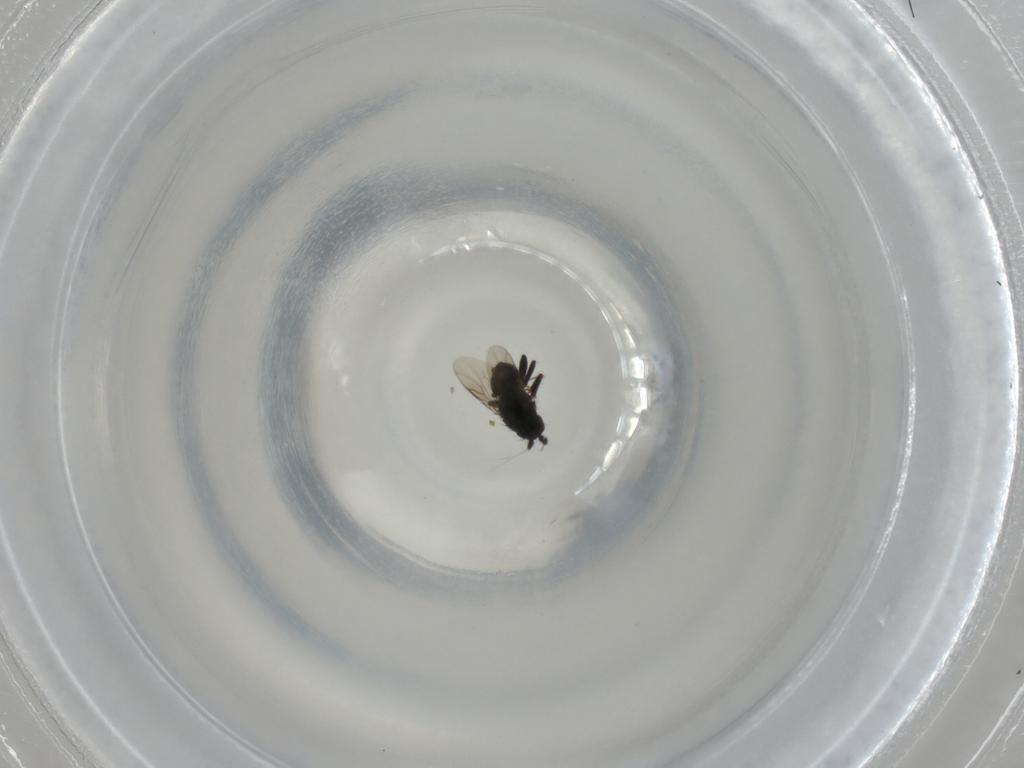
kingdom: Animalia
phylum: Arthropoda
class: Insecta
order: Diptera
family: Sphaeroceridae
